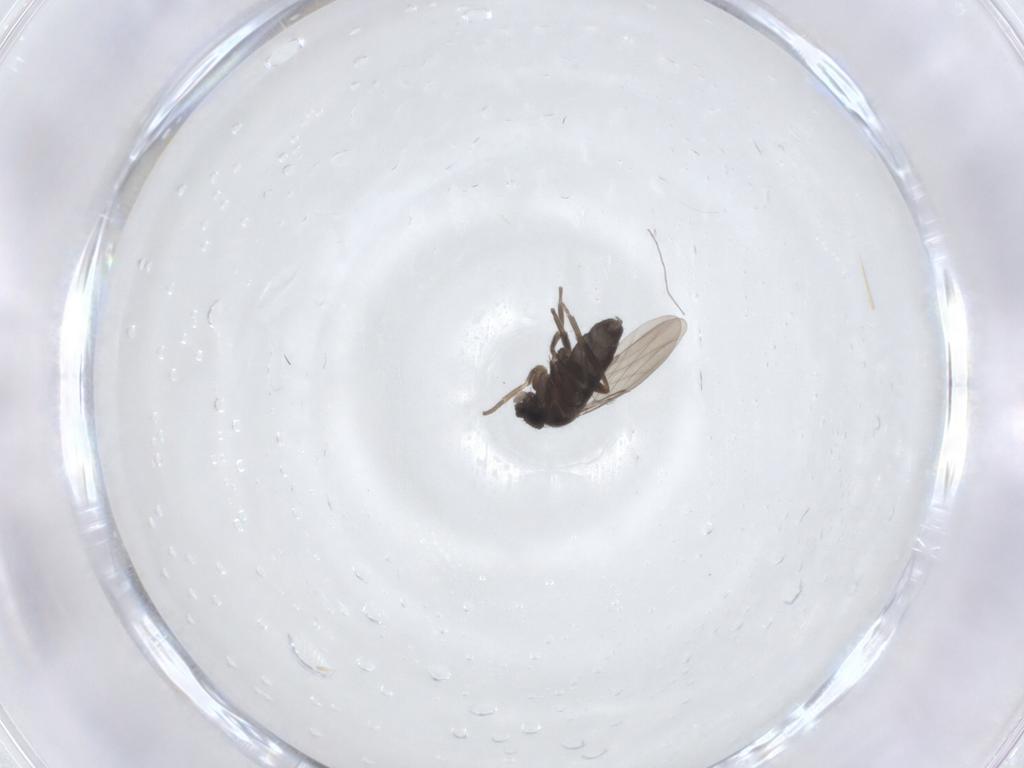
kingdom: Animalia
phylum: Arthropoda
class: Insecta
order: Diptera
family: Phoridae
